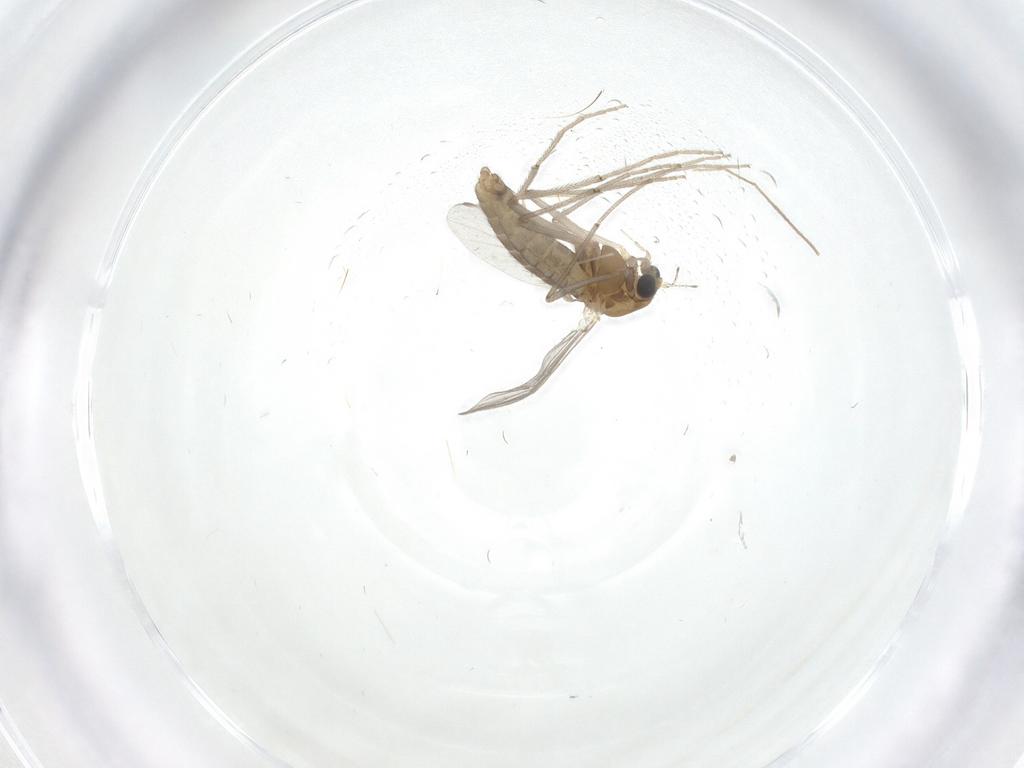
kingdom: Animalia
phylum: Arthropoda
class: Insecta
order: Diptera
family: Chironomidae
